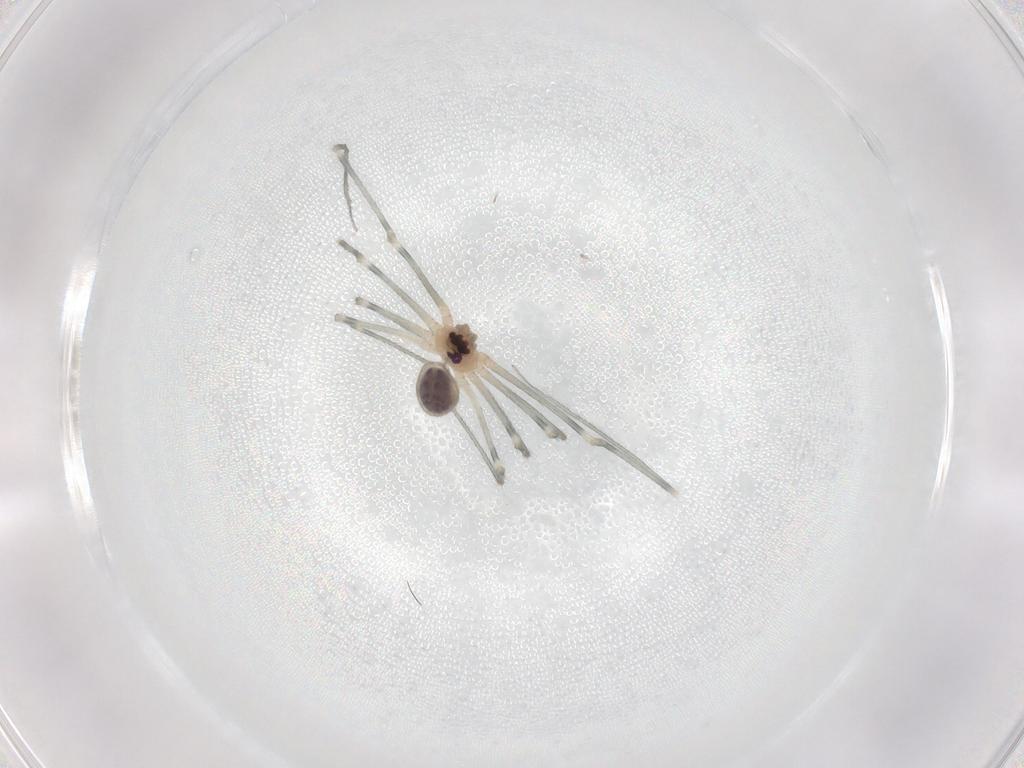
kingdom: Animalia
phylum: Arthropoda
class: Arachnida
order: Araneae
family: Pholcidae
